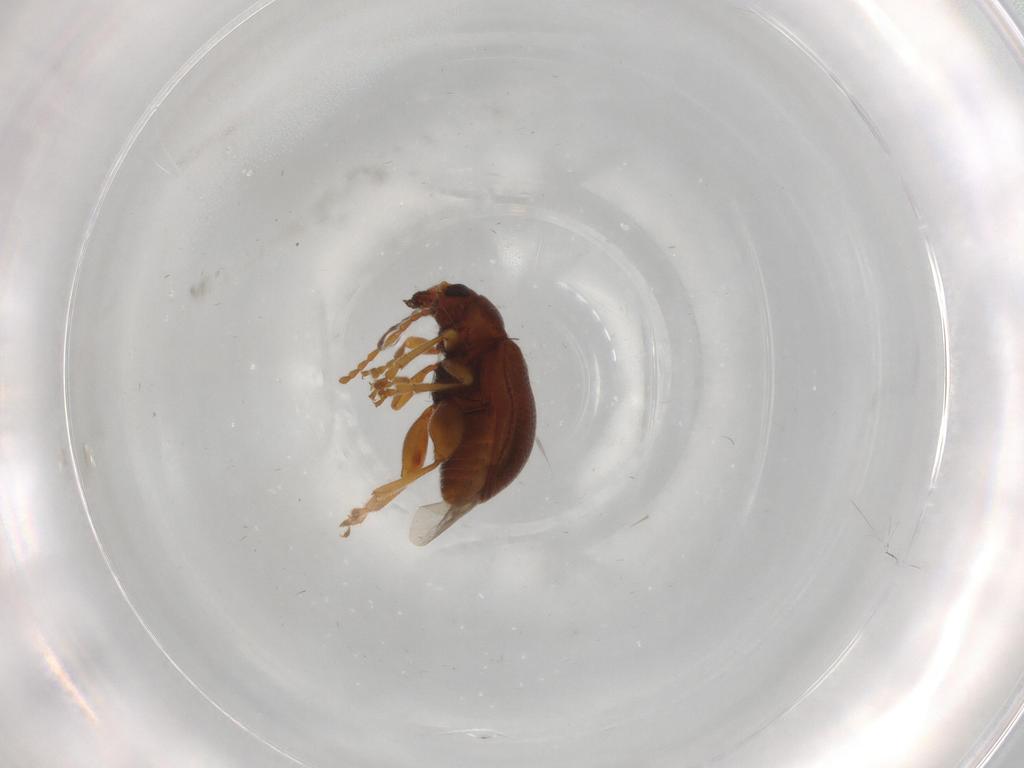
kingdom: Animalia
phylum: Arthropoda
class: Insecta
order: Coleoptera
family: Chrysomelidae
